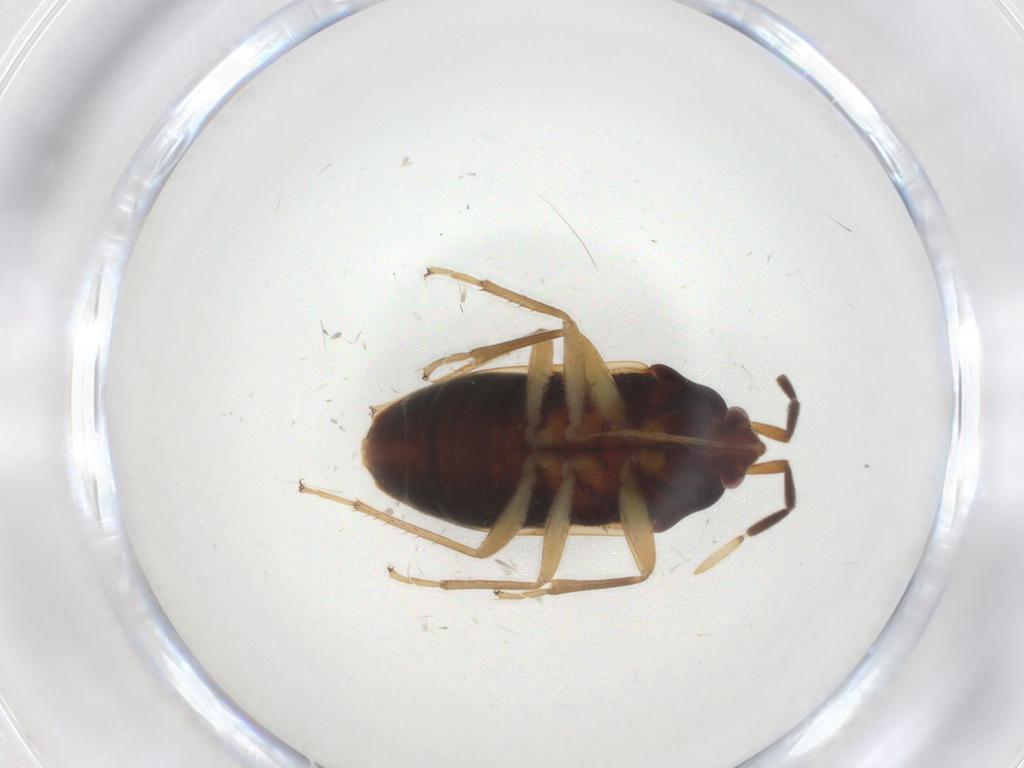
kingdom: Animalia
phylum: Arthropoda
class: Insecta
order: Hemiptera
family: Rhyparochromidae
